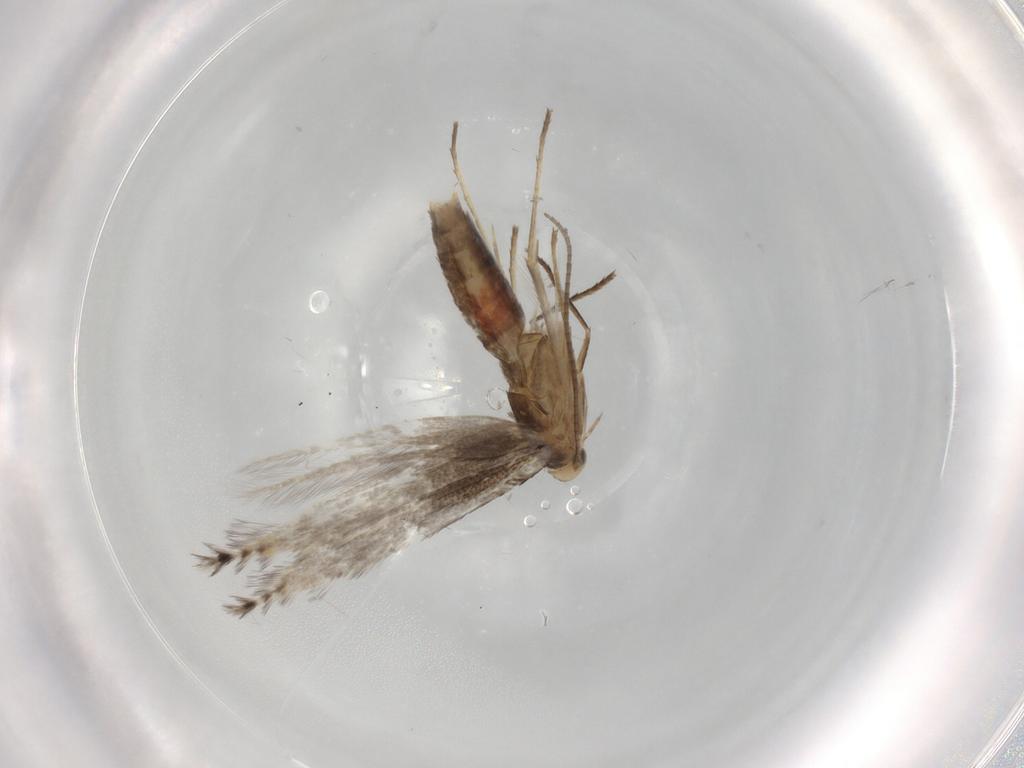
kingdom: Animalia
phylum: Arthropoda
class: Insecta
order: Lepidoptera
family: Gracillariidae
